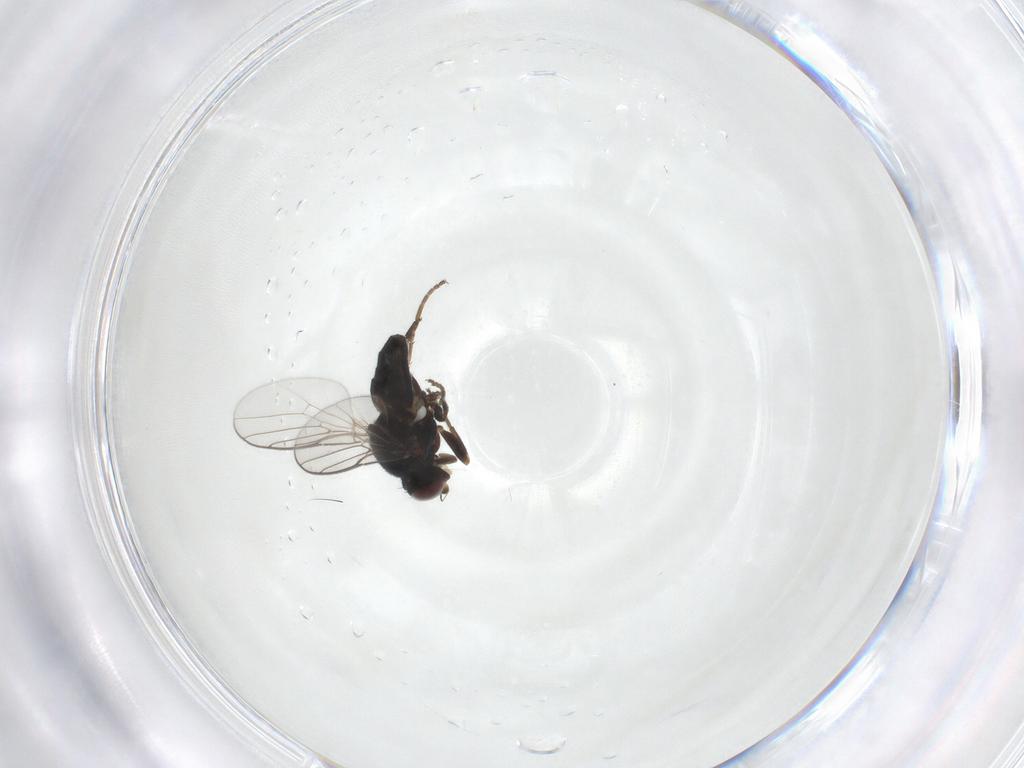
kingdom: Animalia
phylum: Arthropoda
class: Insecta
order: Diptera
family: Chloropidae
